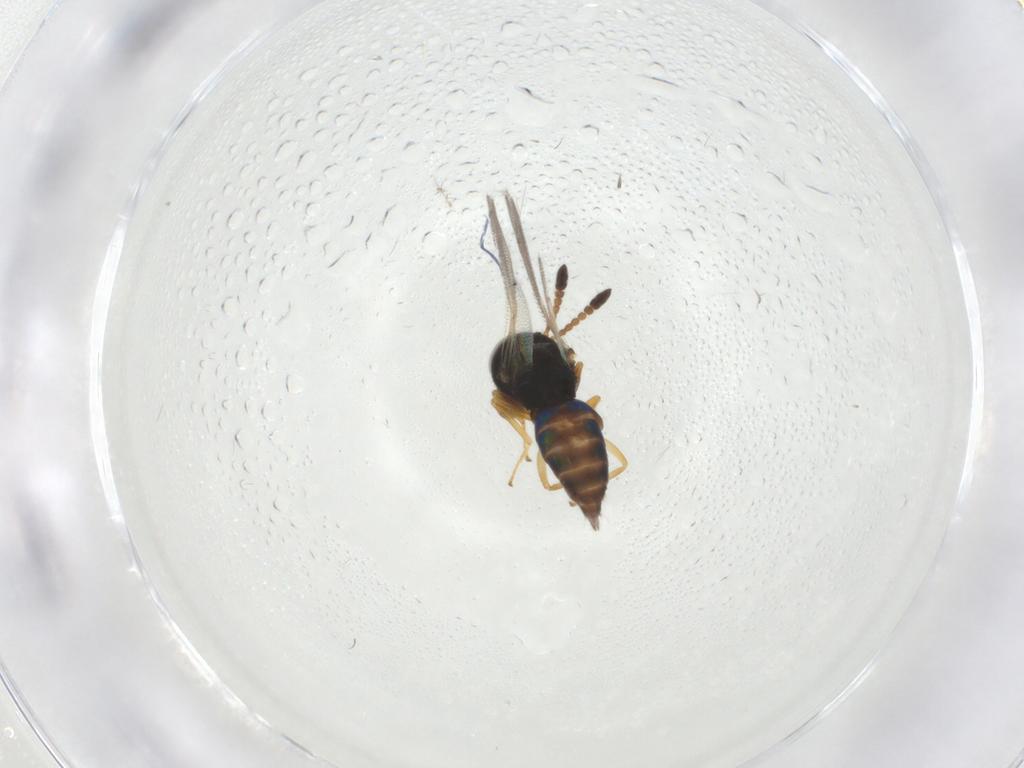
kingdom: Animalia
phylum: Arthropoda
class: Insecta
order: Hymenoptera
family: Pteromalidae
